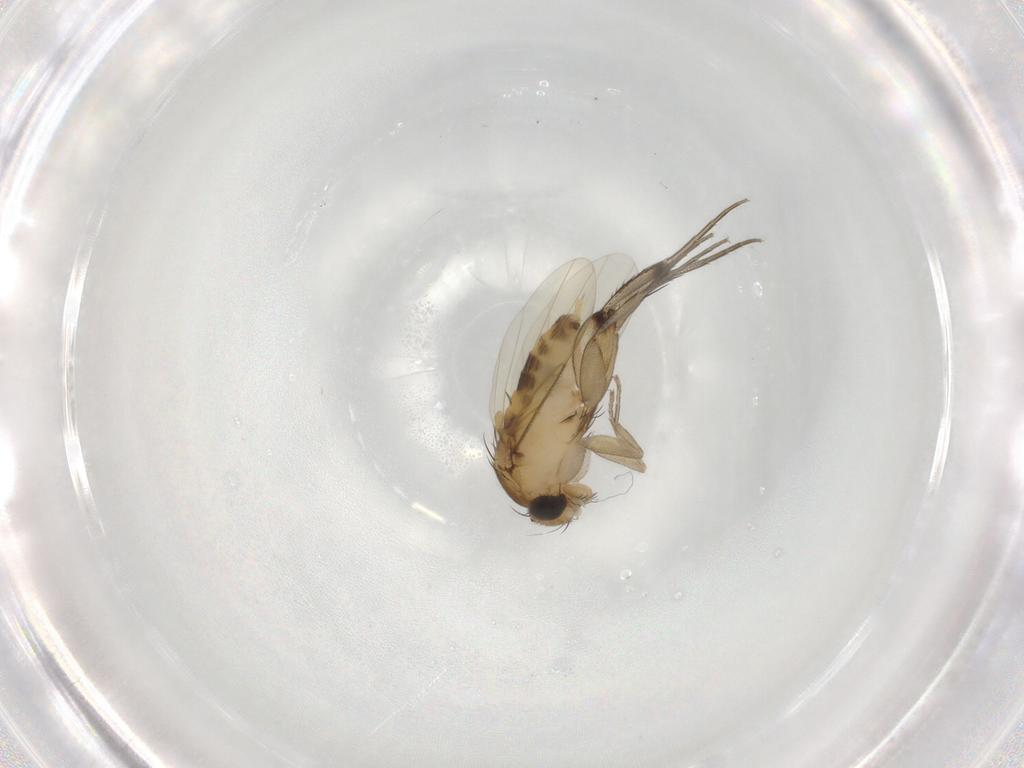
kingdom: Animalia
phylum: Arthropoda
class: Insecta
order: Diptera
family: Phoridae
